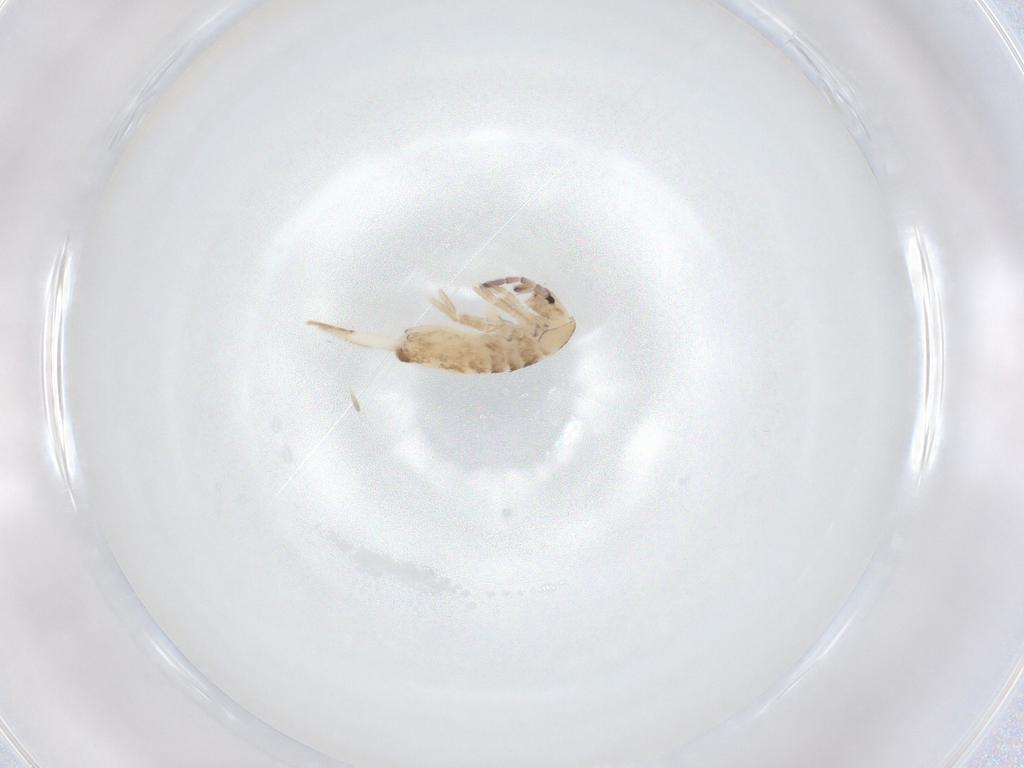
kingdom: Animalia
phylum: Arthropoda
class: Collembola
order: Entomobryomorpha
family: Entomobryidae
